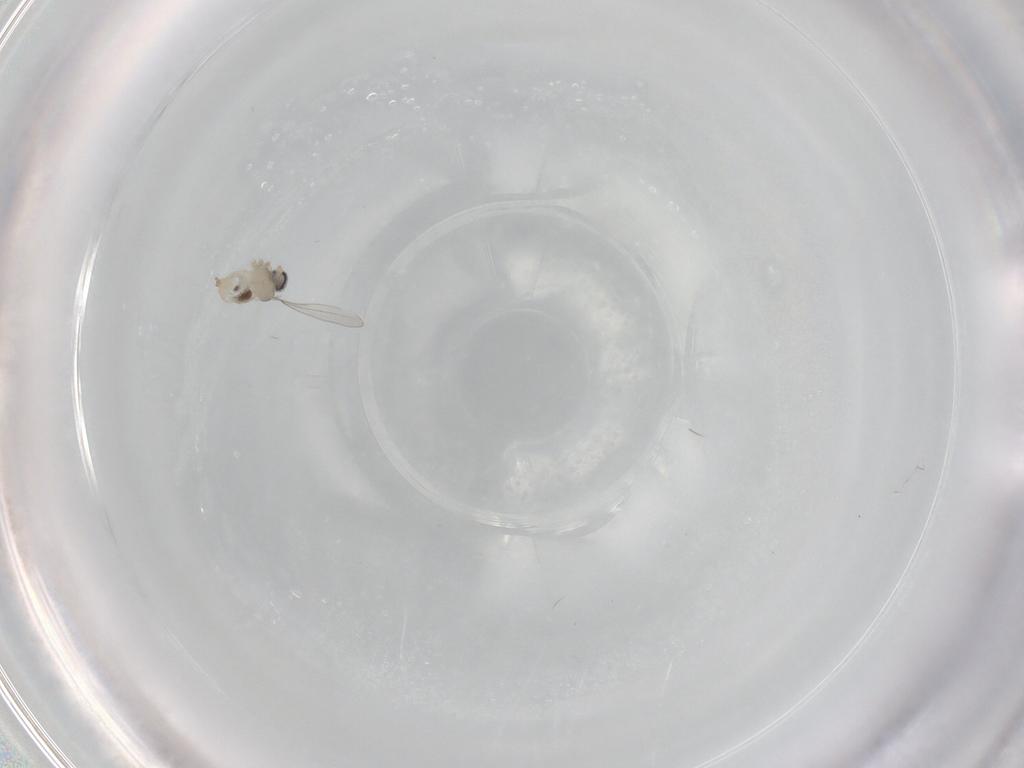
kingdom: Animalia
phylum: Arthropoda
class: Insecta
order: Diptera
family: Cecidomyiidae
